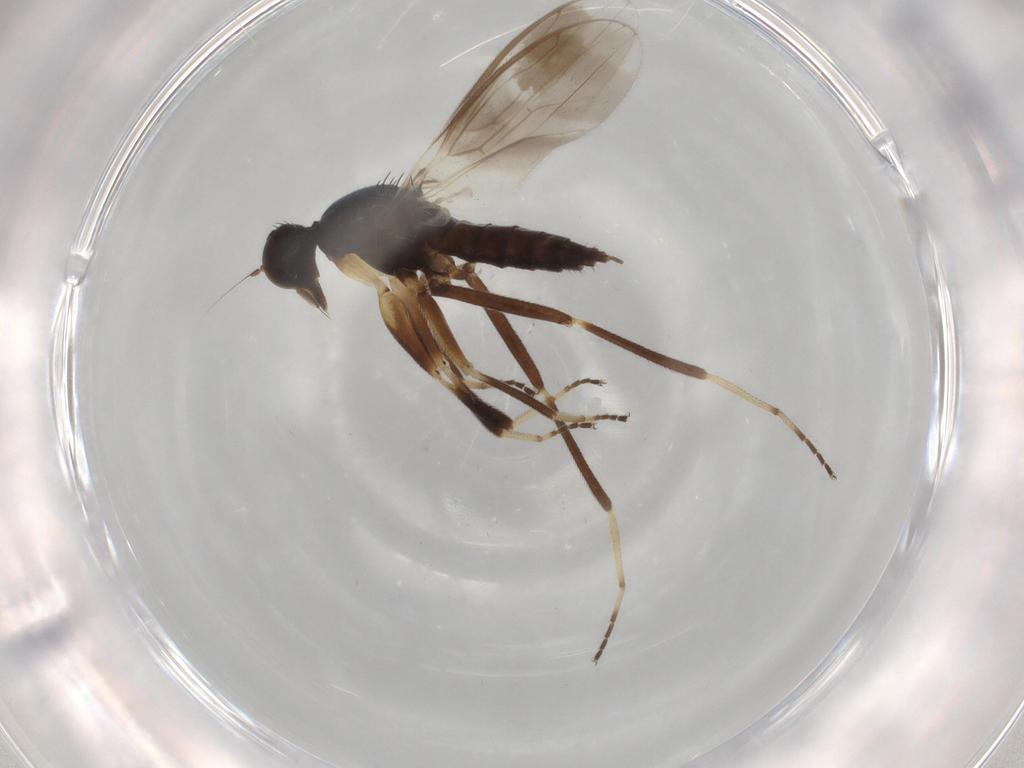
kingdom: Animalia
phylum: Arthropoda
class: Insecta
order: Diptera
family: Hybotidae
